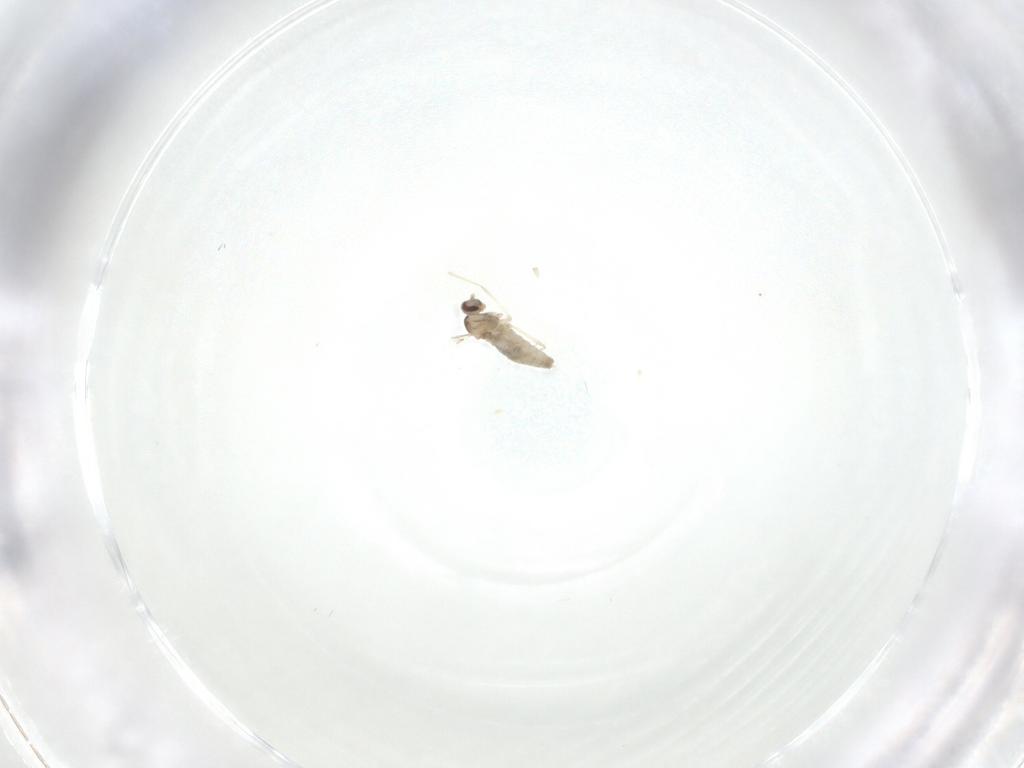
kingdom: Animalia
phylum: Arthropoda
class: Insecta
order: Diptera
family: Cecidomyiidae
